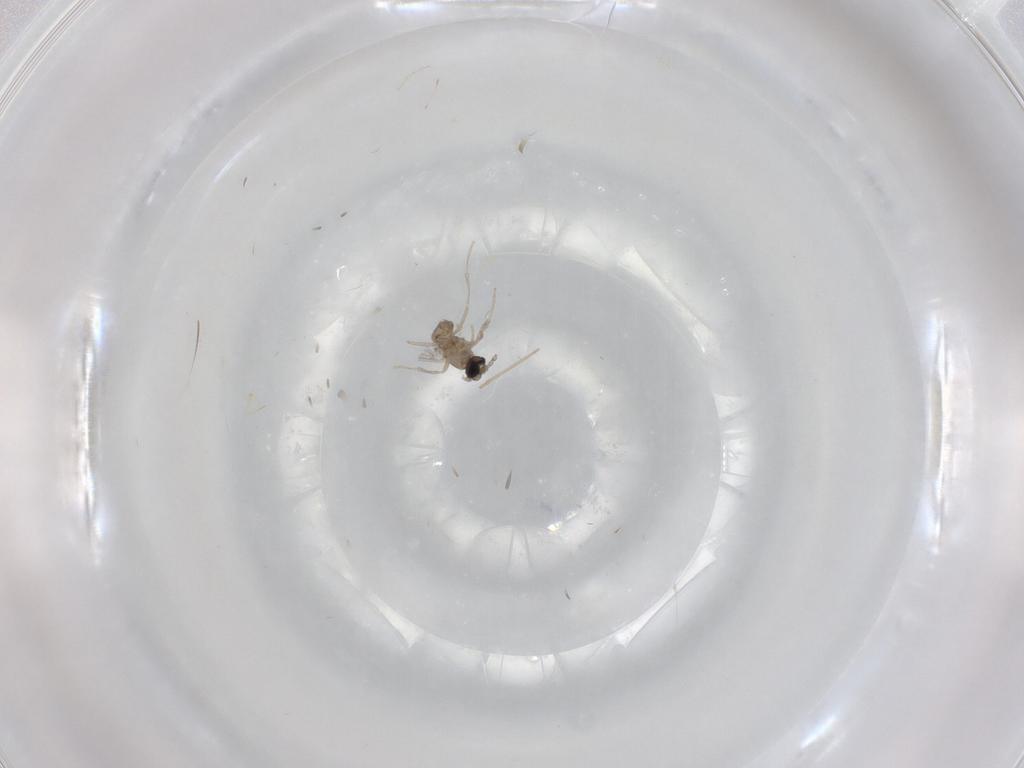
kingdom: Animalia
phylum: Arthropoda
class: Insecta
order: Diptera
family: Cecidomyiidae
